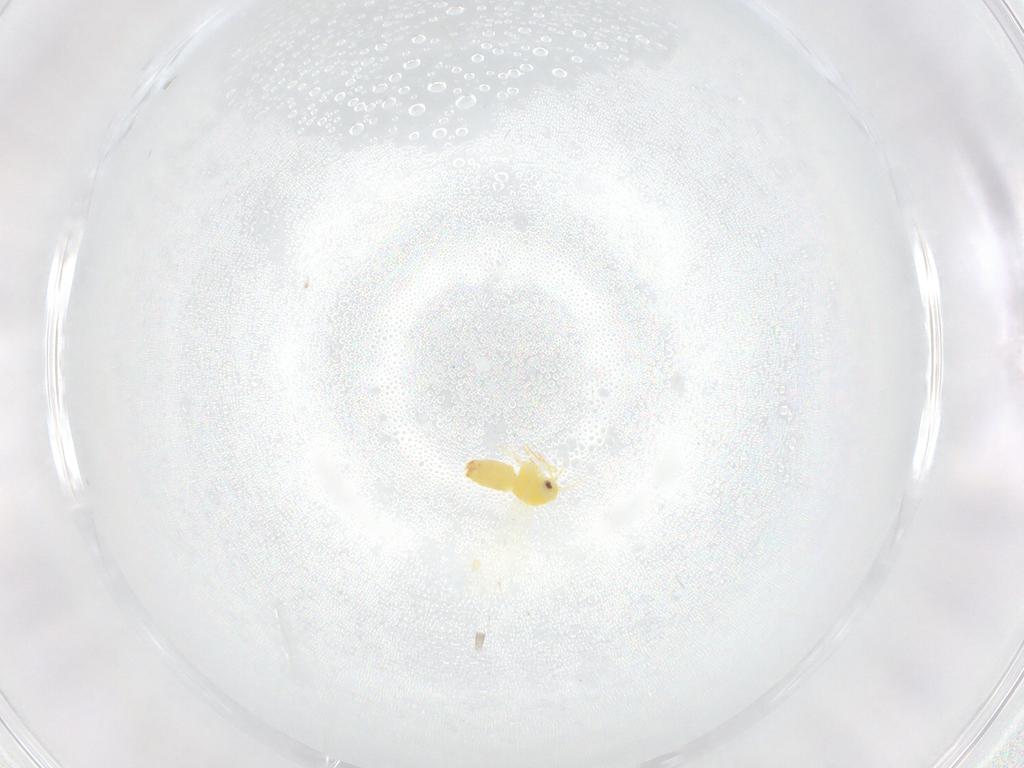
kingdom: Animalia
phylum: Arthropoda
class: Insecta
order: Hemiptera
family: Aleyrodidae
